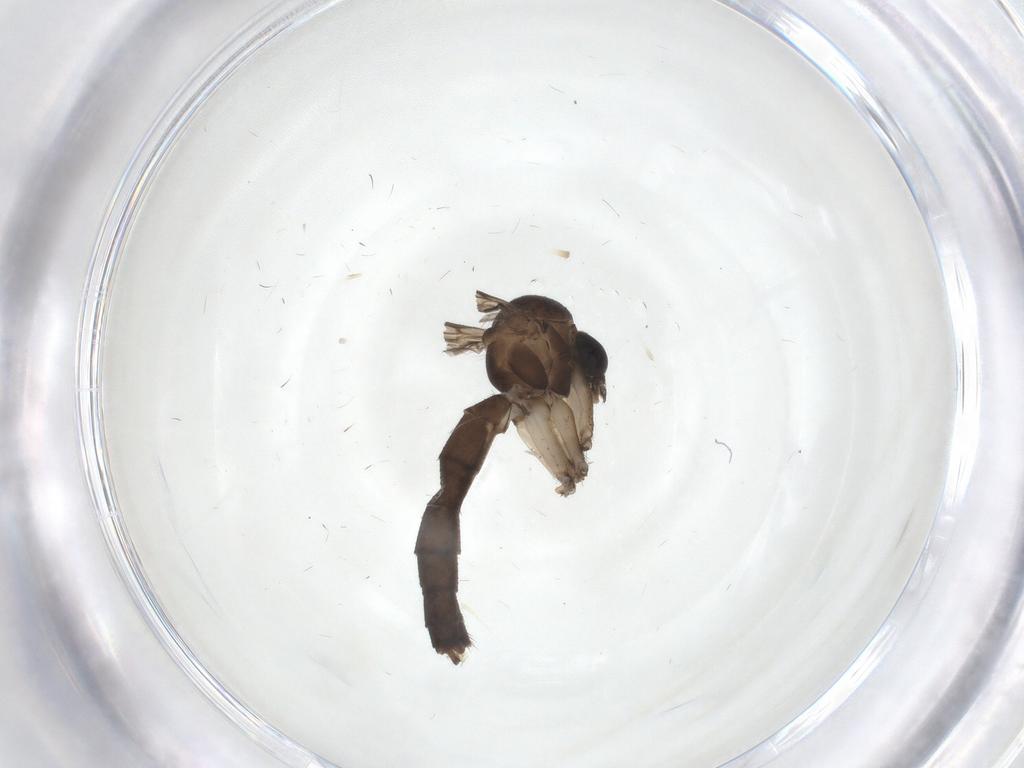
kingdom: Animalia
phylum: Arthropoda
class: Insecta
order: Diptera
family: Mycetophilidae
